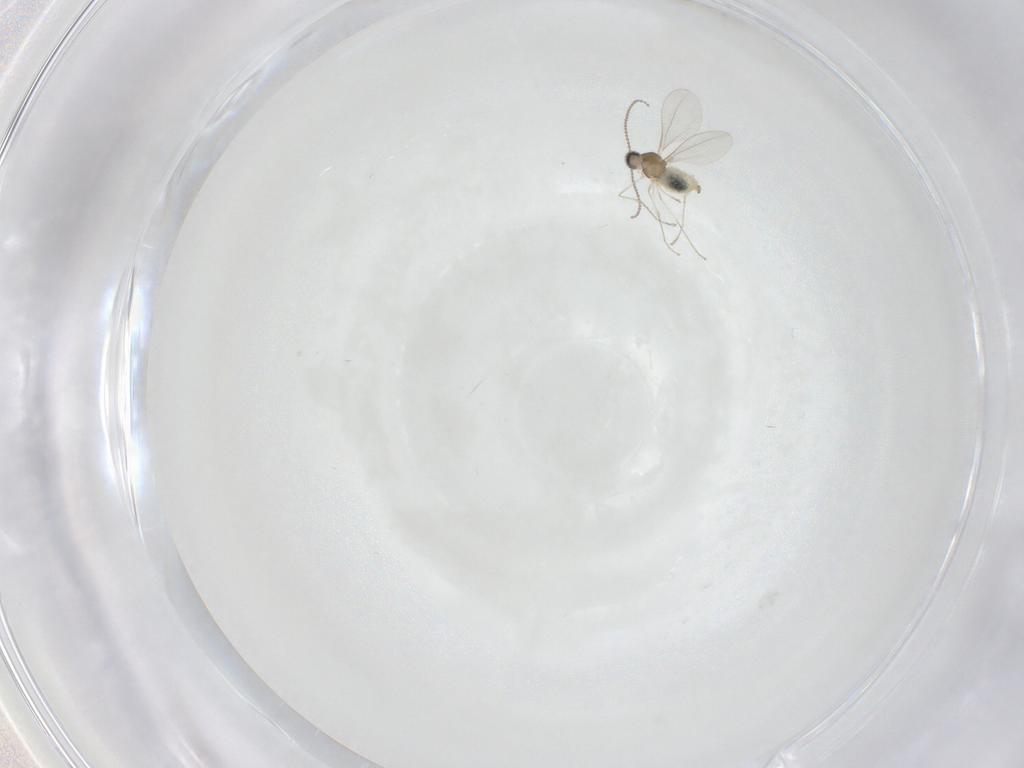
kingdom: Animalia
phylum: Arthropoda
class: Insecta
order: Diptera
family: Cecidomyiidae
